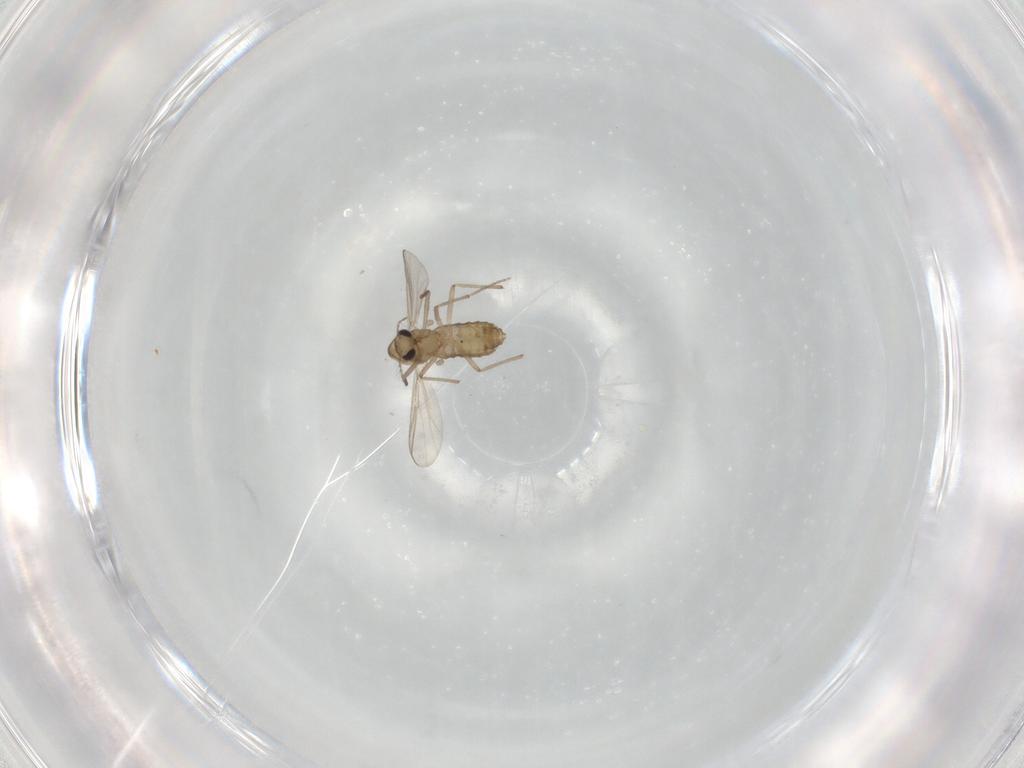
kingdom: Animalia
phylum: Arthropoda
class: Insecta
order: Diptera
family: Chironomidae
